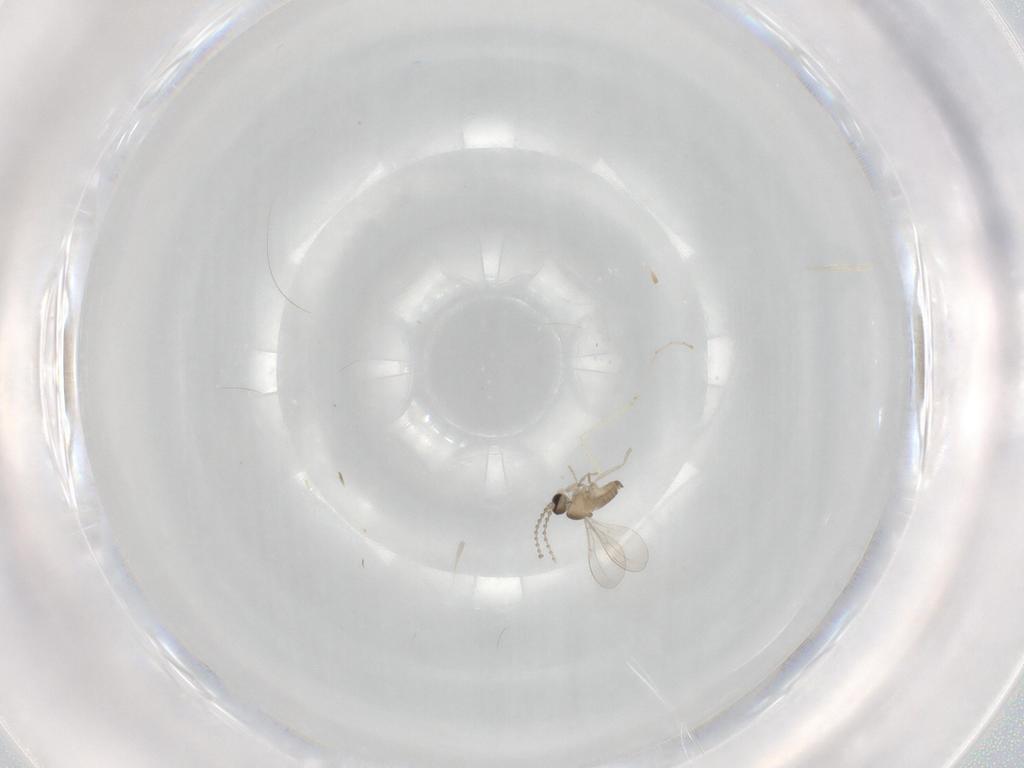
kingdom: Animalia
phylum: Arthropoda
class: Insecta
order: Diptera
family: Cecidomyiidae
